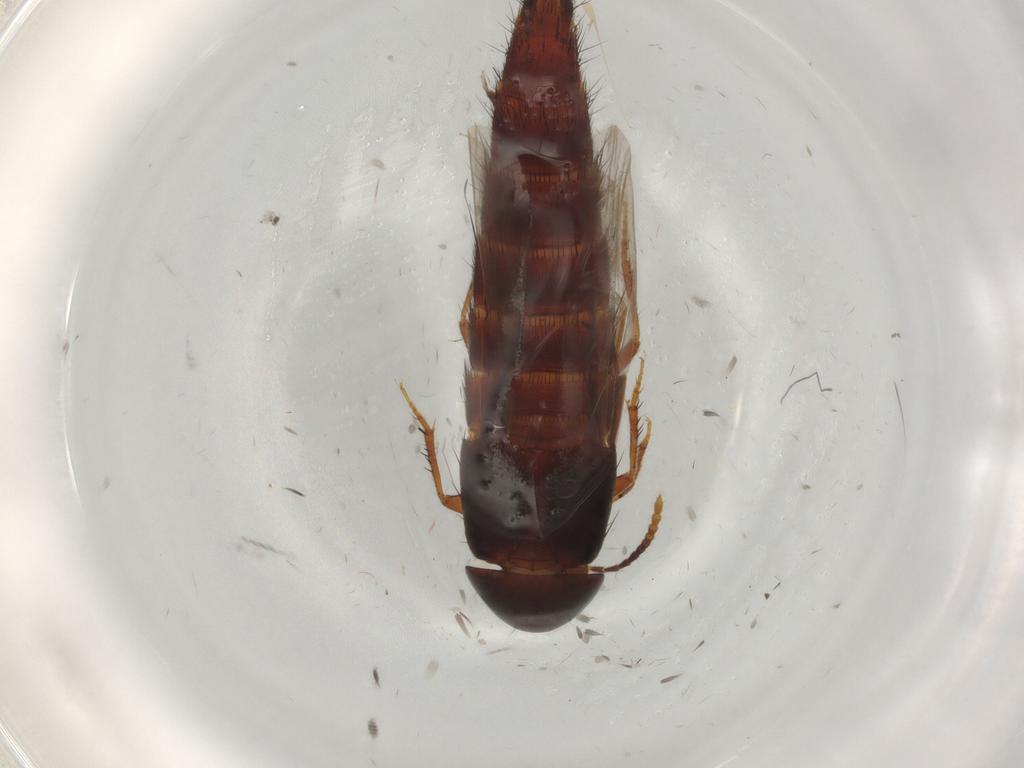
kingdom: Animalia
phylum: Arthropoda
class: Insecta
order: Coleoptera
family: Staphylinidae
